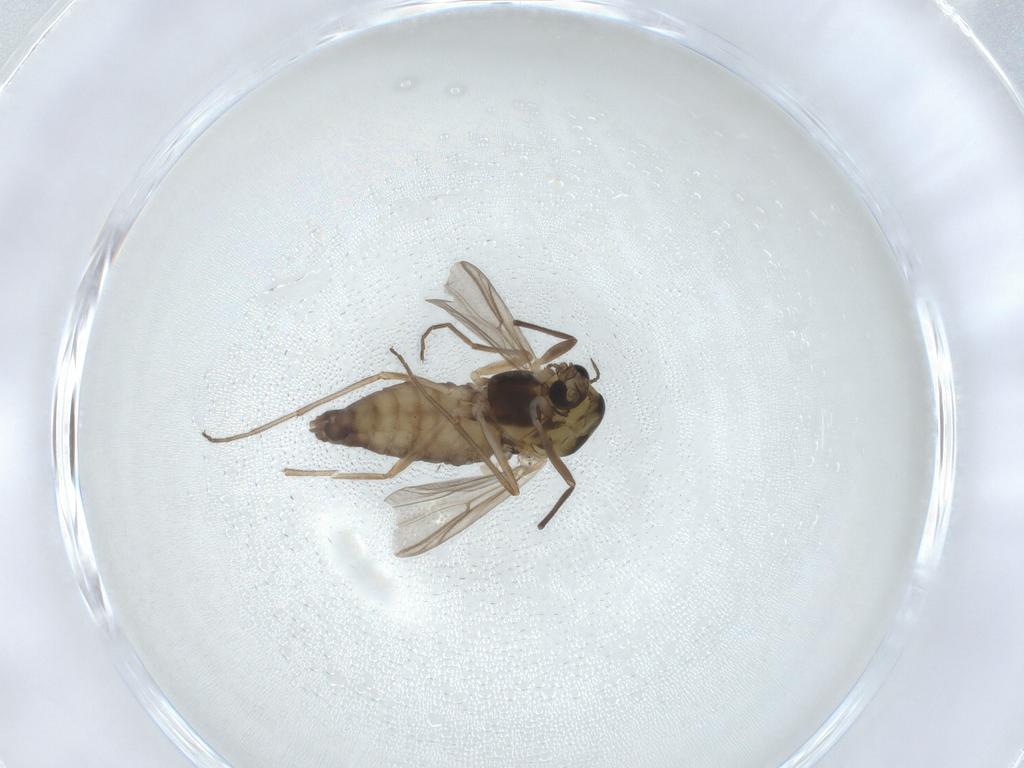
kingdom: Animalia
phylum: Arthropoda
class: Insecta
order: Diptera
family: Chironomidae
